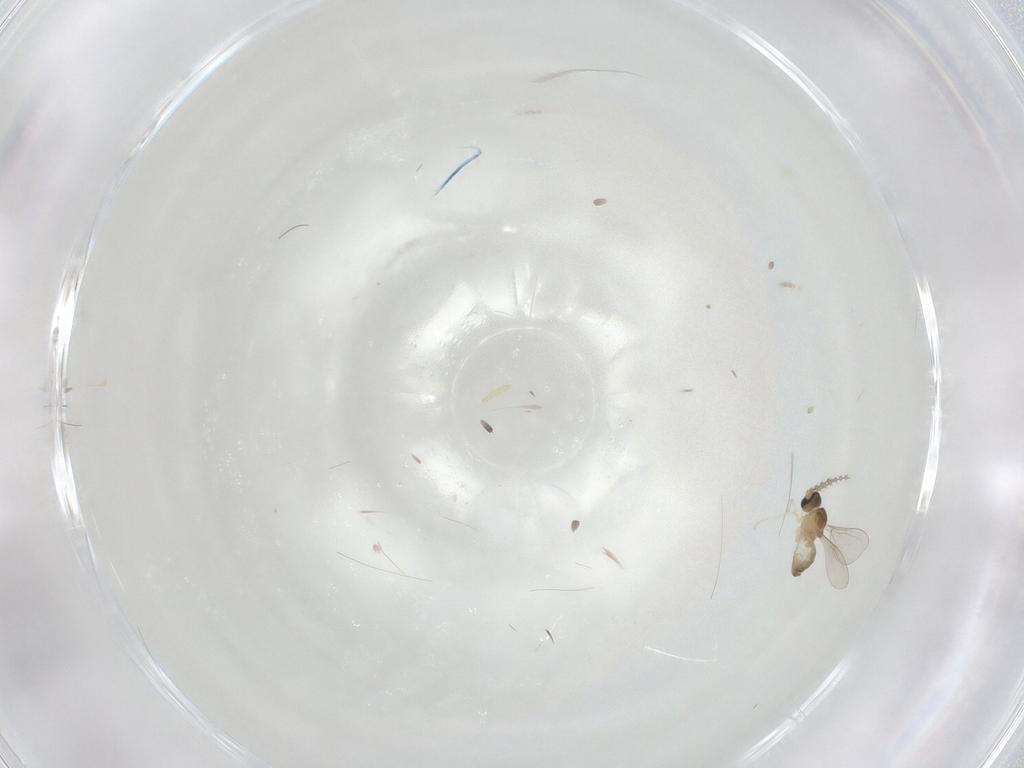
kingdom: Animalia
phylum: Arthropoda
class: Insecta
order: Diptera
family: Cecidomyiidae
